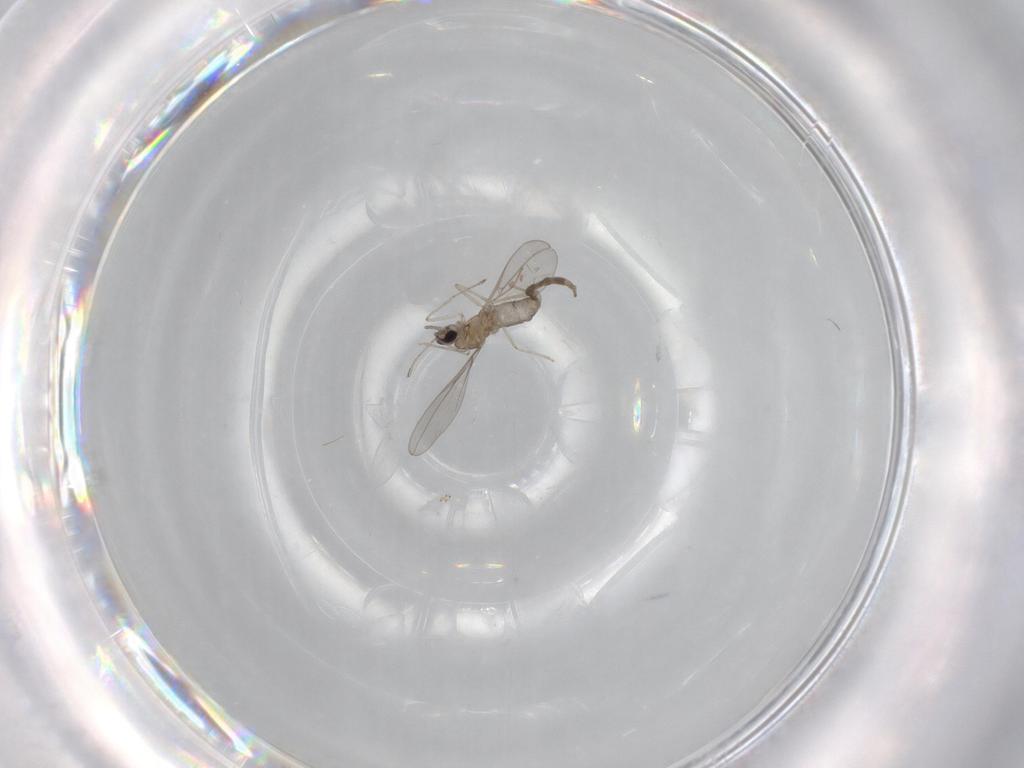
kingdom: Animalia
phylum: Arthropoda
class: Insecta
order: Diptera
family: Cecidomyiidae
